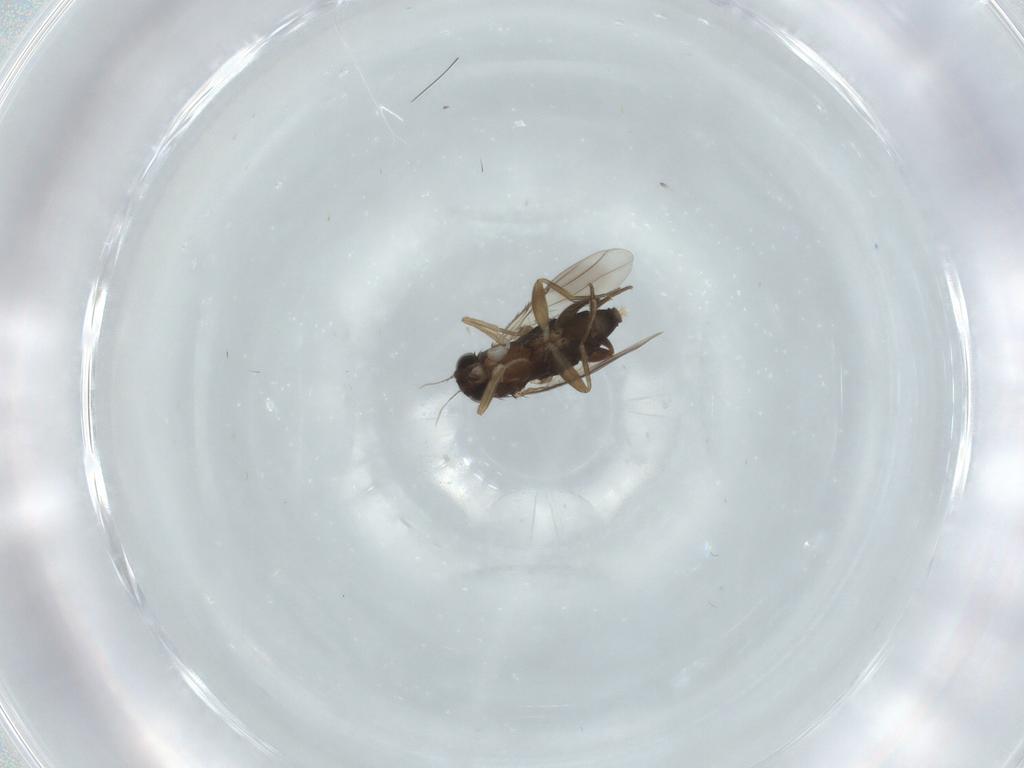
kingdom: Animalia
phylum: Arthropoda
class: Insecta
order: Diptera
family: Phoridae
